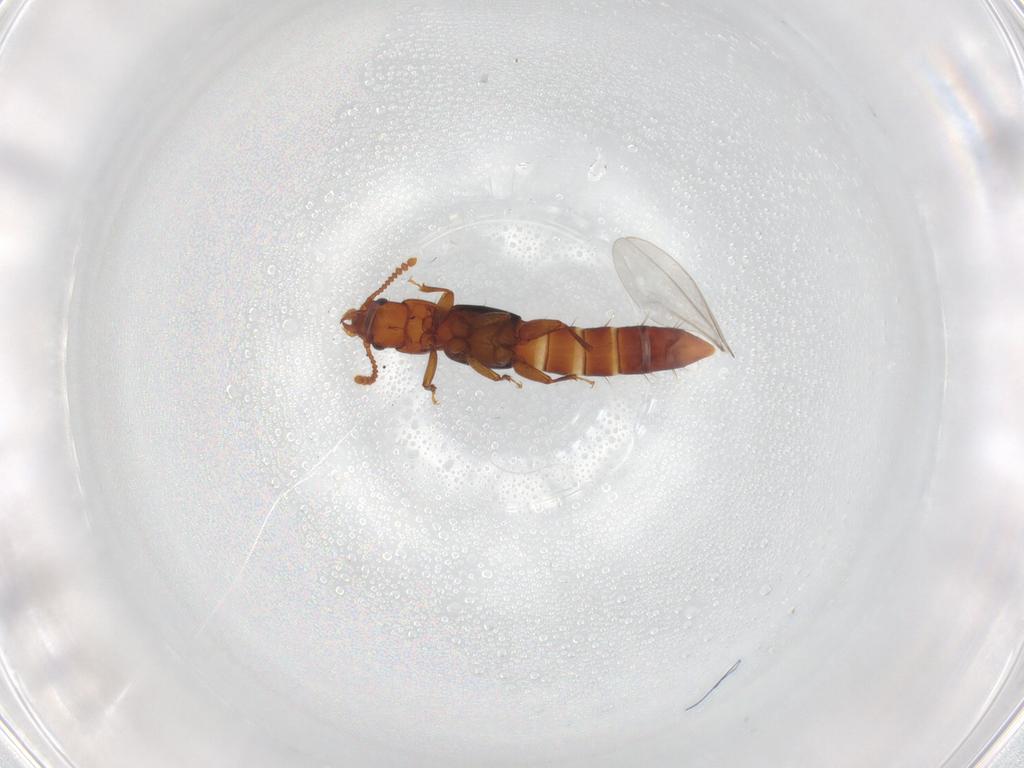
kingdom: Animalia
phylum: Arthropoda
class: Insecta
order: Coleoptera
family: Staphylinidae
